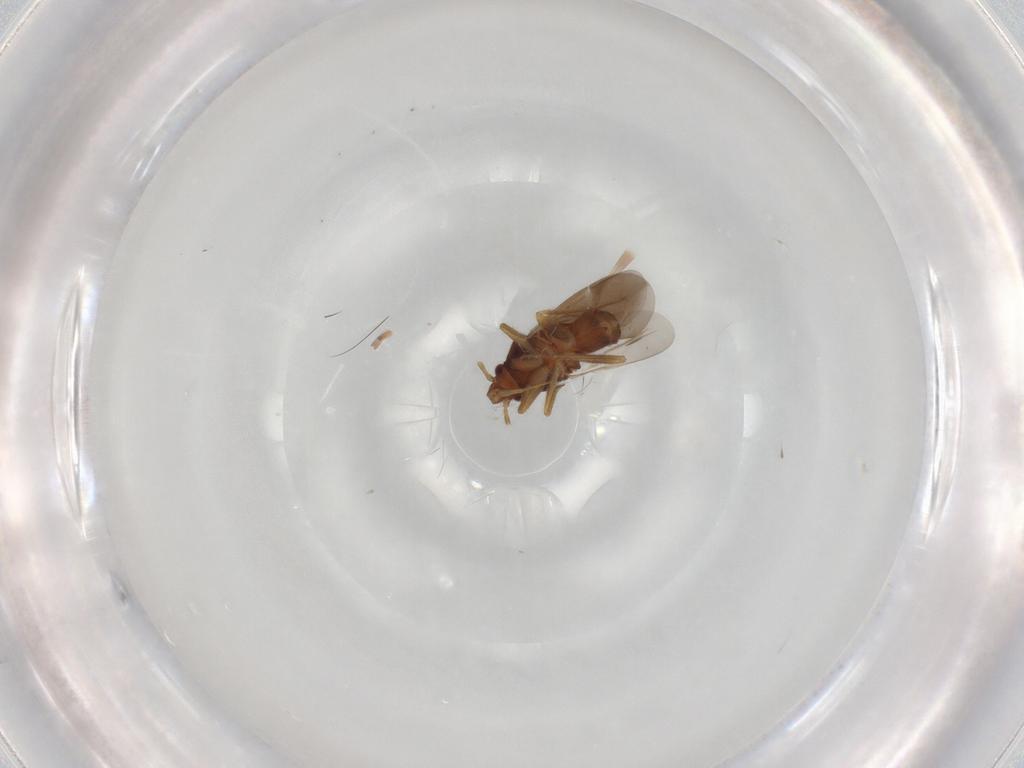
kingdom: Animalia
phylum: Arthropoda
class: Insecta
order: Hemiptera
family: Ceratocombidae
